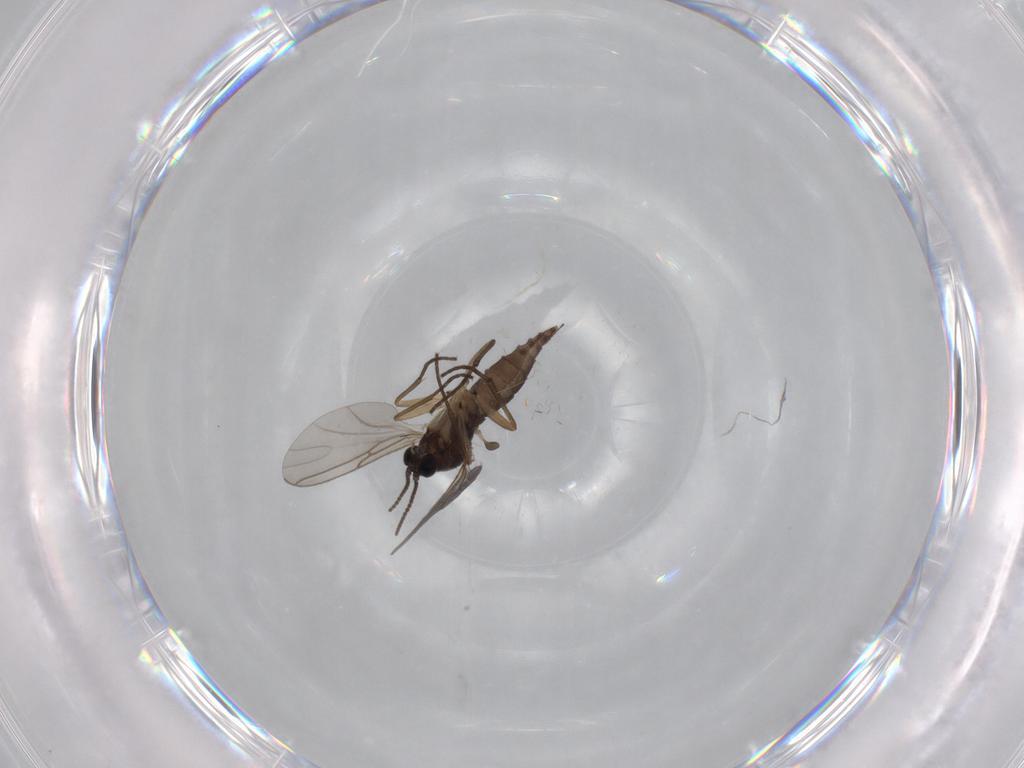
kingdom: Animalia
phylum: Arthropoda
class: Insecta
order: Diptera
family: Sciaridae
